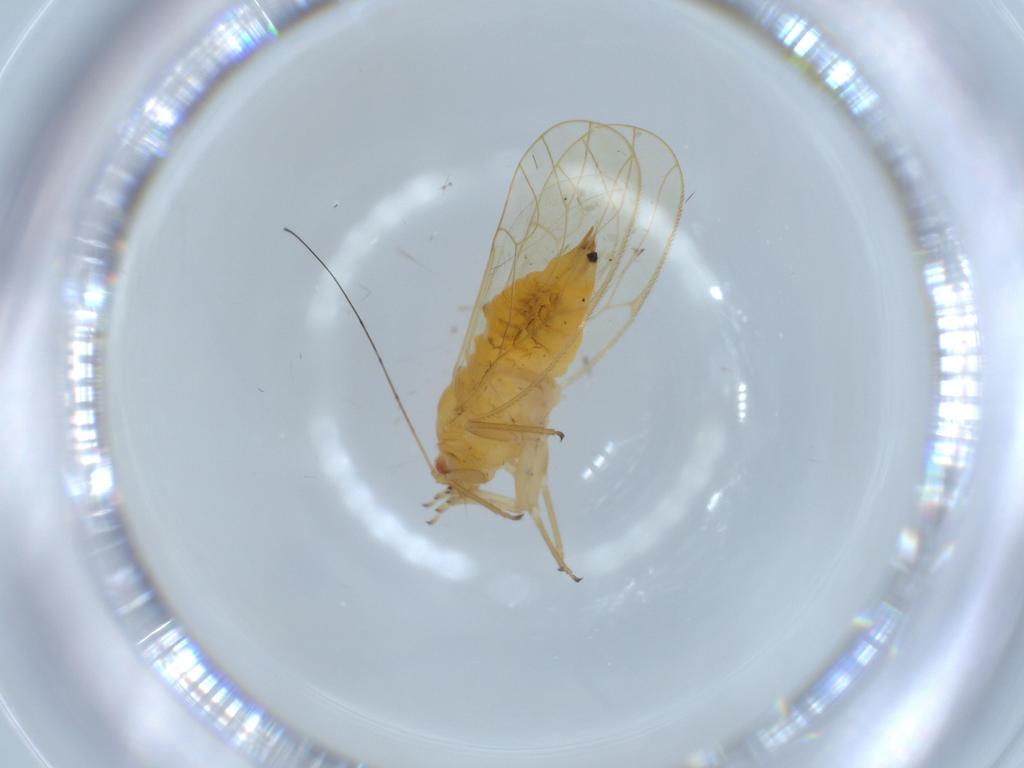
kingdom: Animalia
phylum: Arthropoda
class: Insecta
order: Hemiptera
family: Psyllidae
